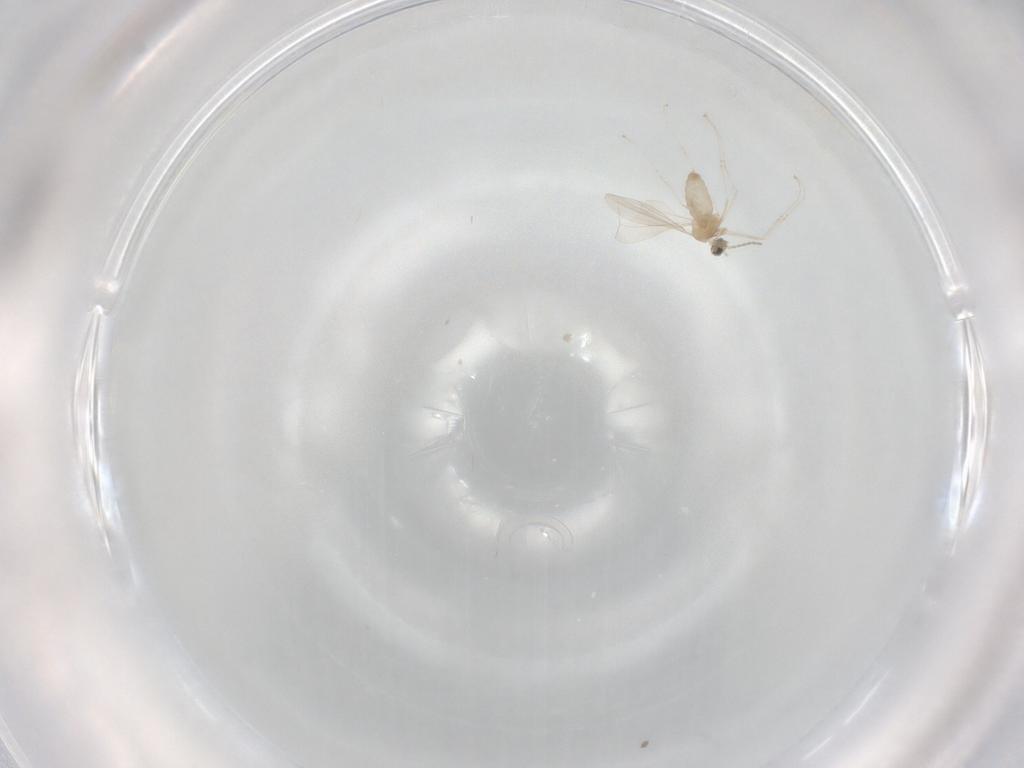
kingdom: Animalia
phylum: Arthropoda
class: Insecta
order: Diptera
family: Cecidomyiidae
